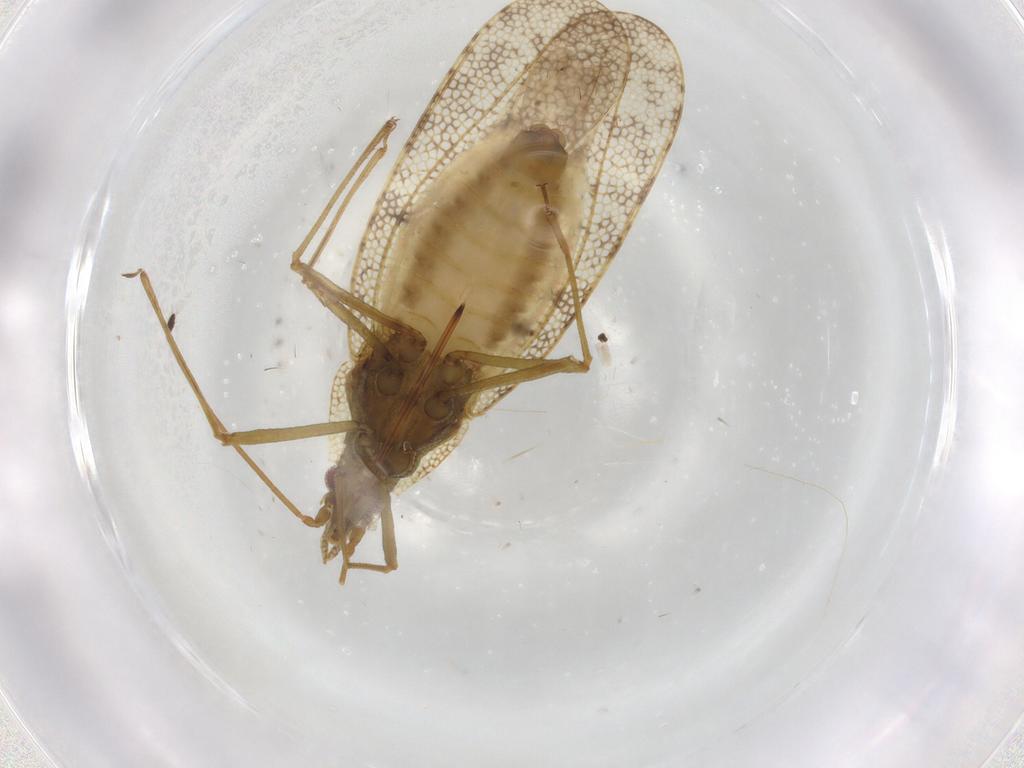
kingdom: Animalia
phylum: Arthropoda
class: Insecta
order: Hemiptera
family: Tingidae
